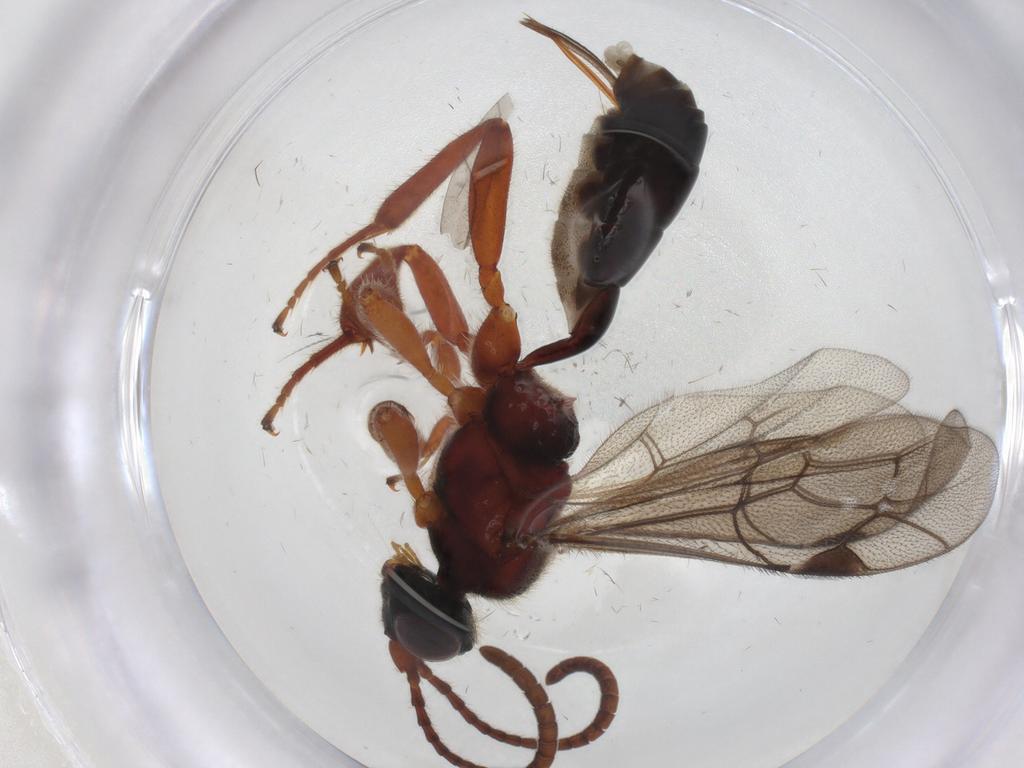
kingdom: Animalia
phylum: Arthropoda
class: Insecta
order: Hymenoptera
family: Ichneumonidae
